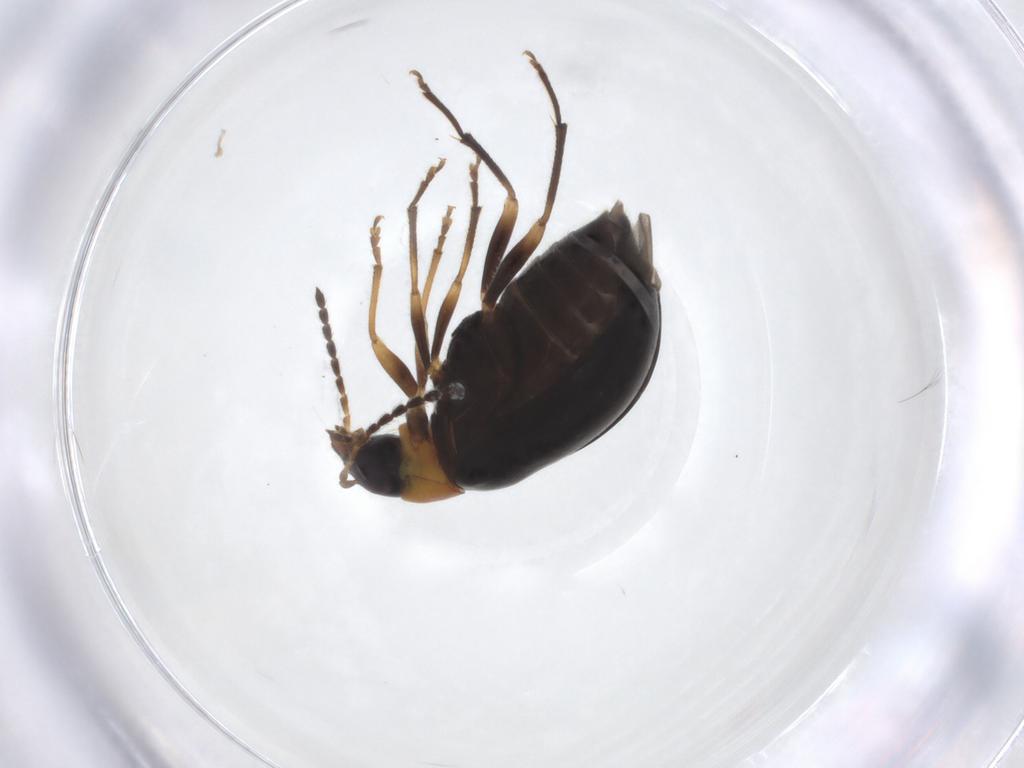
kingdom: Animalia
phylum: Arthropoda
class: Insecta
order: Coleoptera
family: Chrysomelidae
